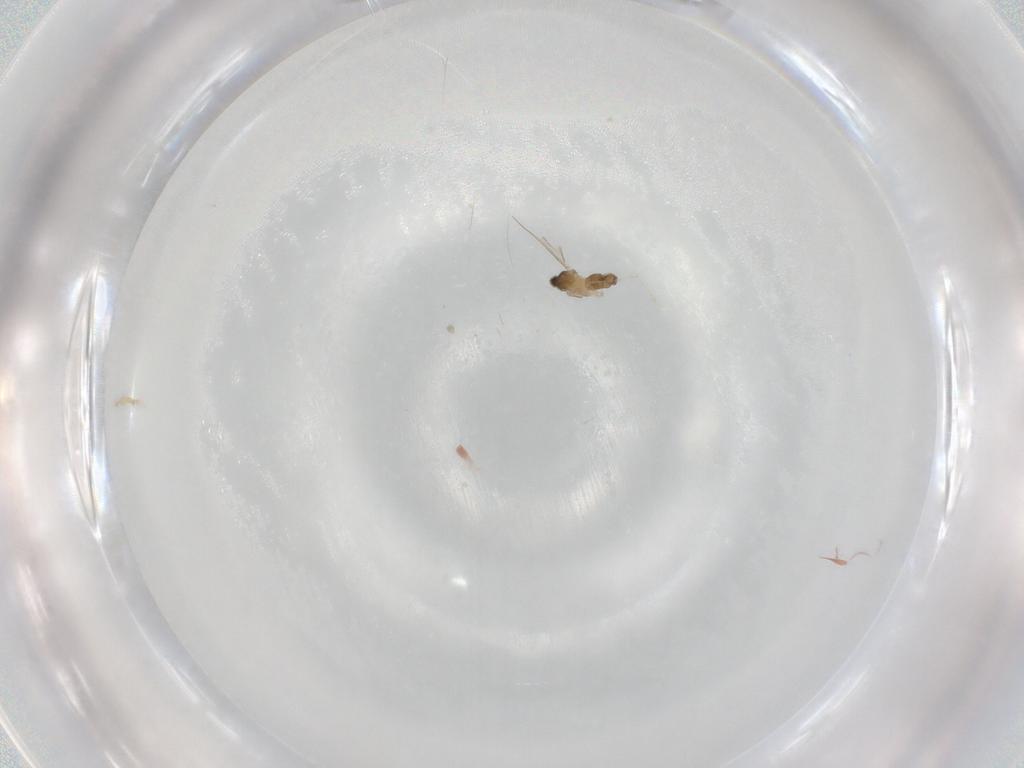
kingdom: Animalia
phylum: Arthropoda
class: Insecta
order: Diptera
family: Cecidomyiidae
